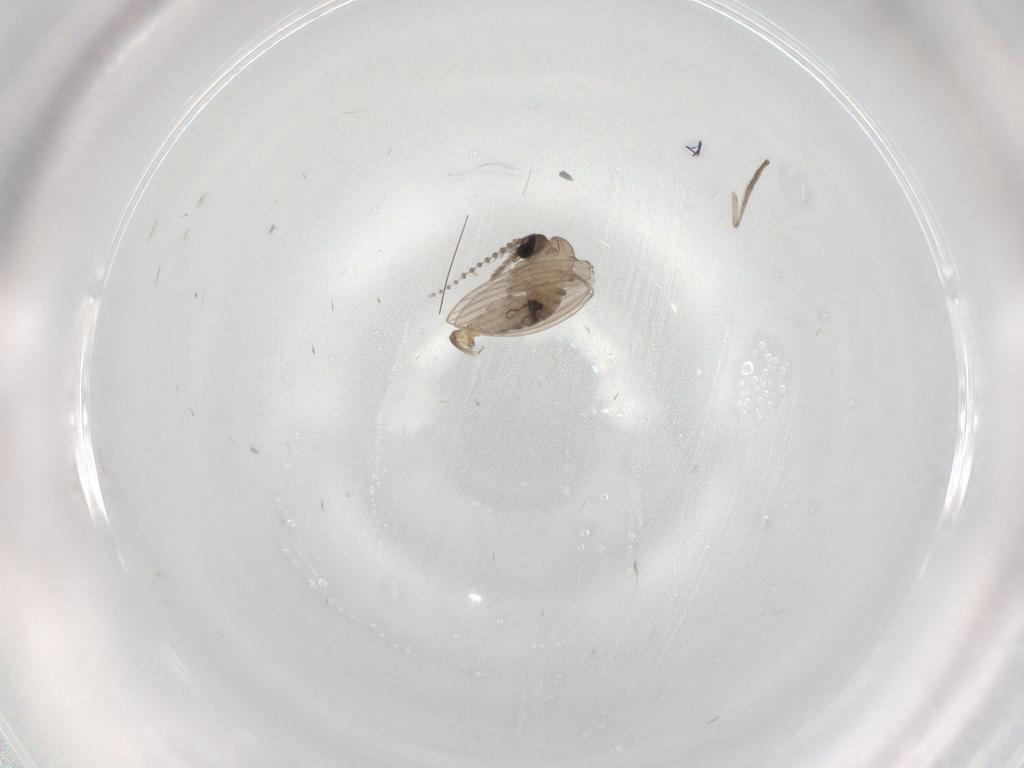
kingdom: Animalia
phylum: Arthropoda
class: Insecta
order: Diptera
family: Psychodidae
